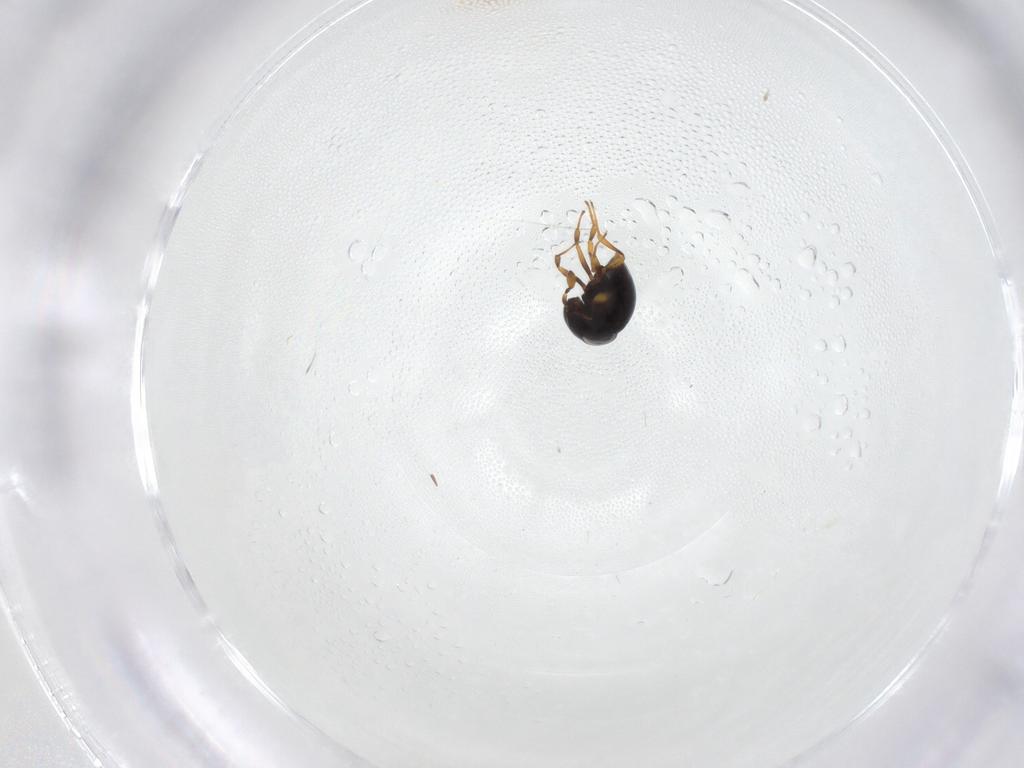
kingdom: Animalia
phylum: Arthropoda
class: Insecta
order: Hymenoptera
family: Scelionidae
